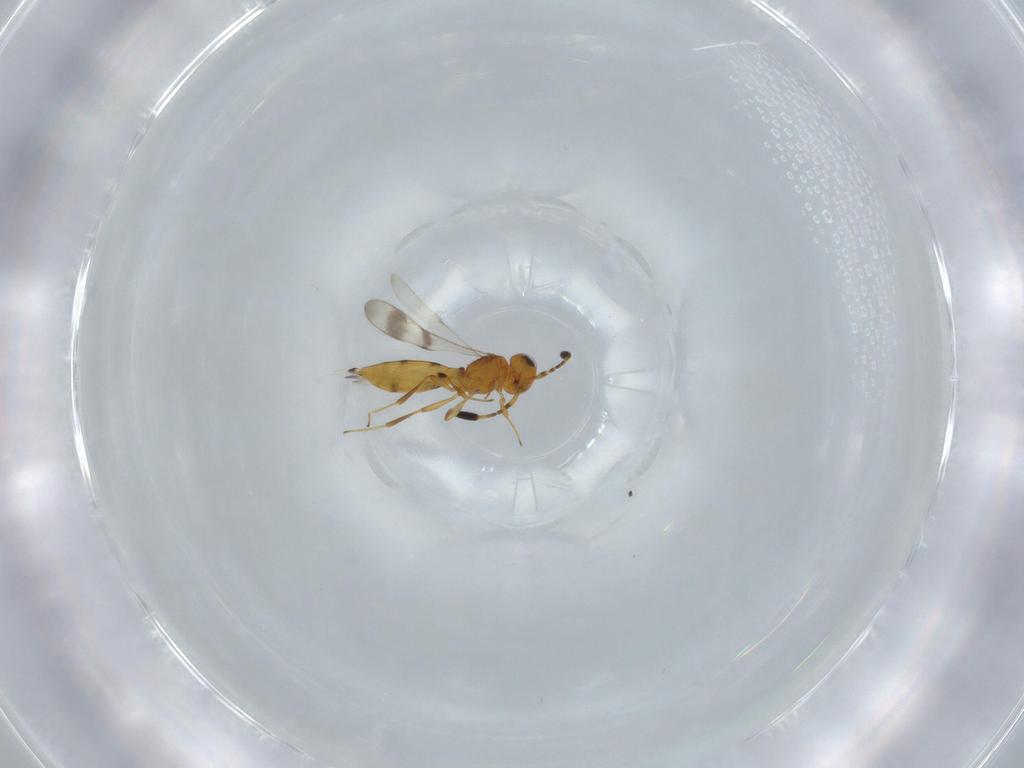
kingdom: Animalia
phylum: Arthropoda
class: Insecta
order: Hymenoptera
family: Scelionidae
